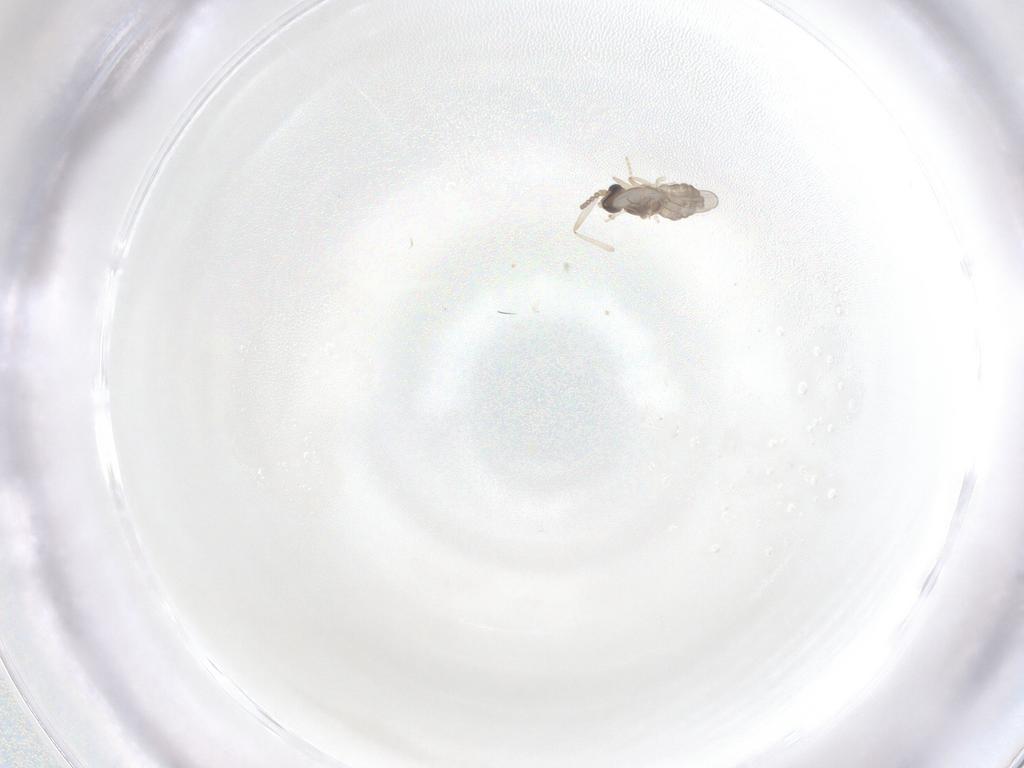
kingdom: Animalia
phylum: Arthropoda
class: Insecta
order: Diptera
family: Cecidomyiidae
